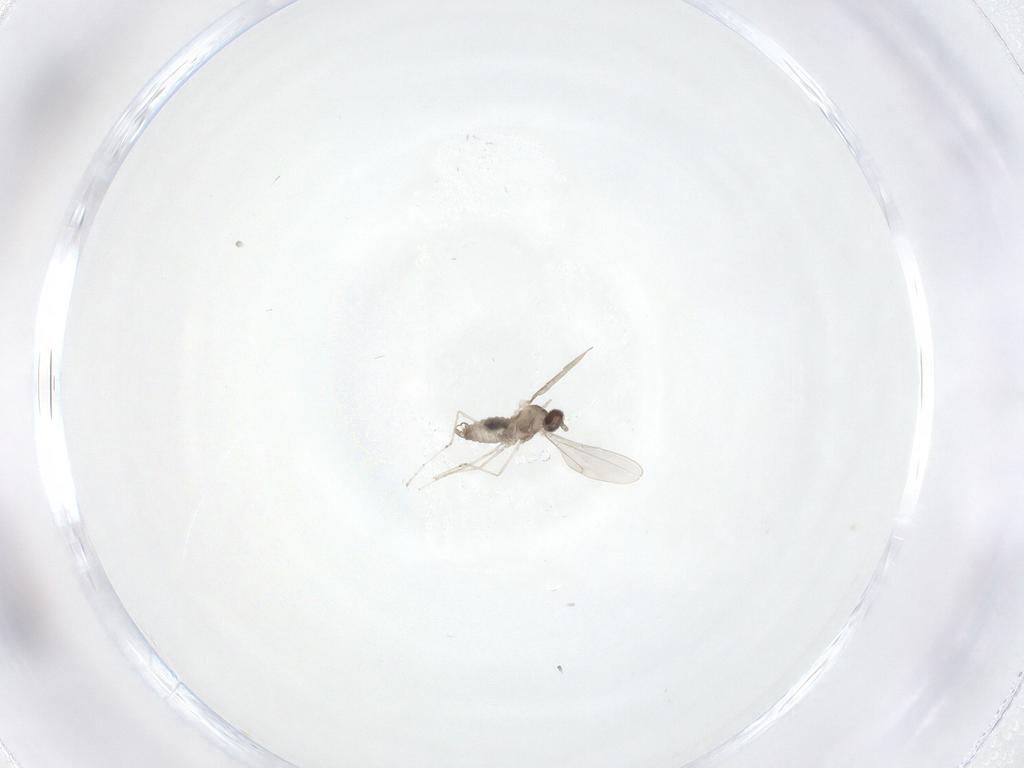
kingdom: Animalia
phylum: Arthropoda
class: Insecta
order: Diptera
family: Cecidomyiidae
